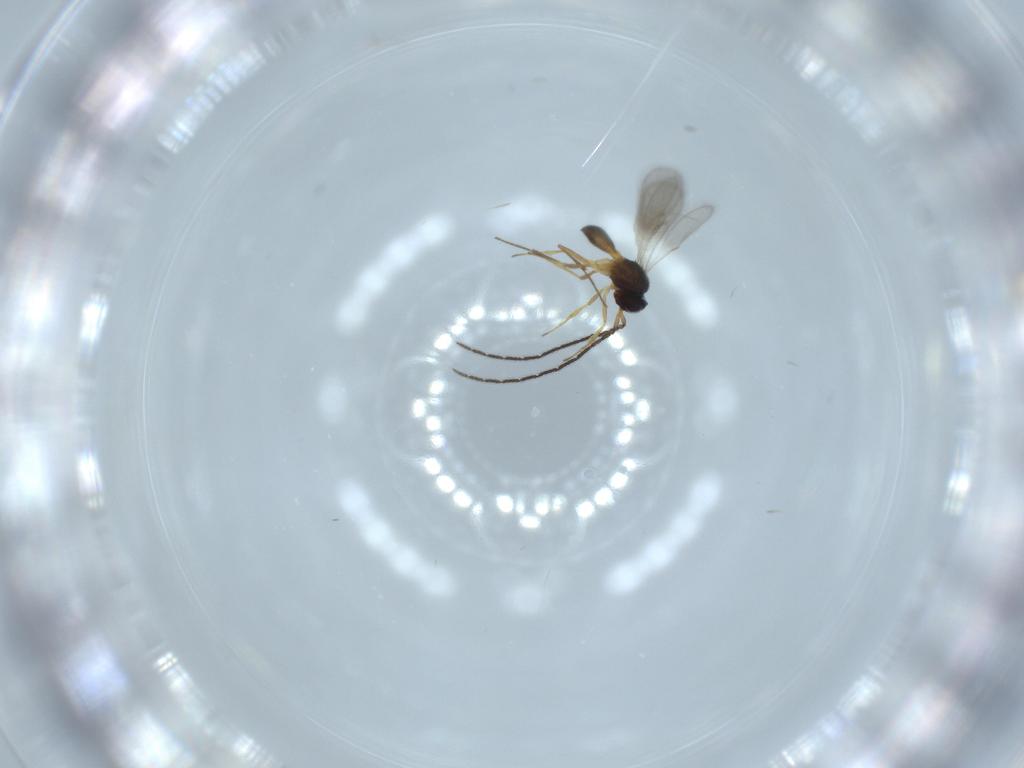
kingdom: Animalia
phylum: Arthropoda
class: Insecta
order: Hymenoptera
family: Scelionidae
